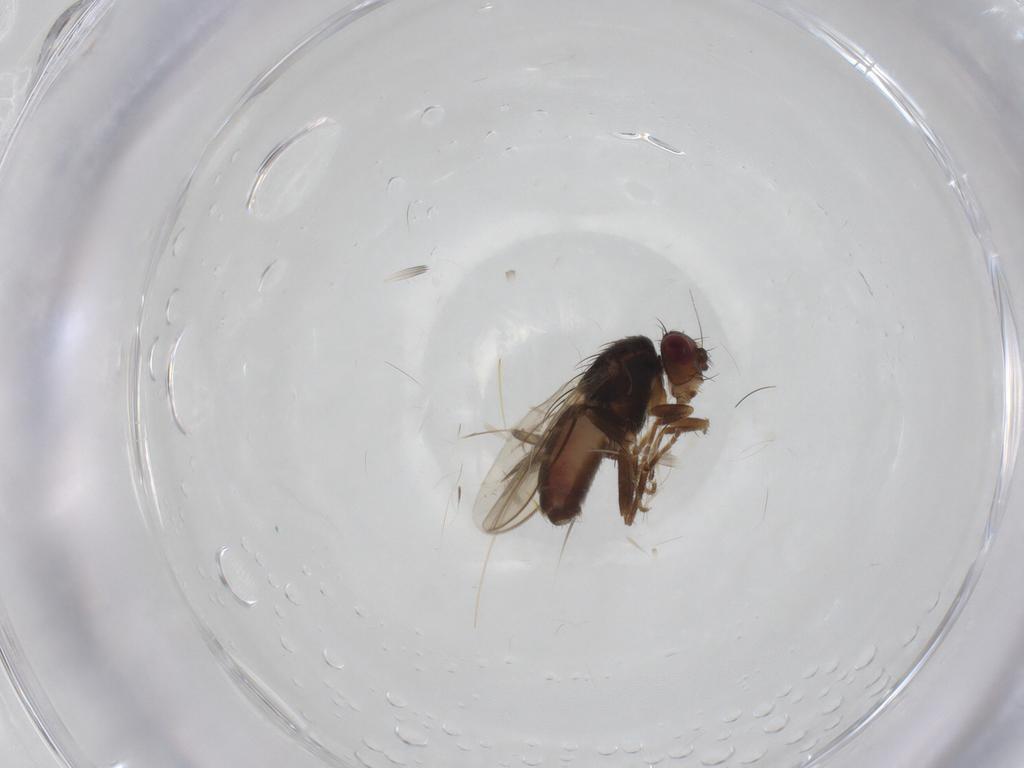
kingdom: Animalia
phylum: Arthropoda
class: Insecta
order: Diptera
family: Sphaeroceridae
